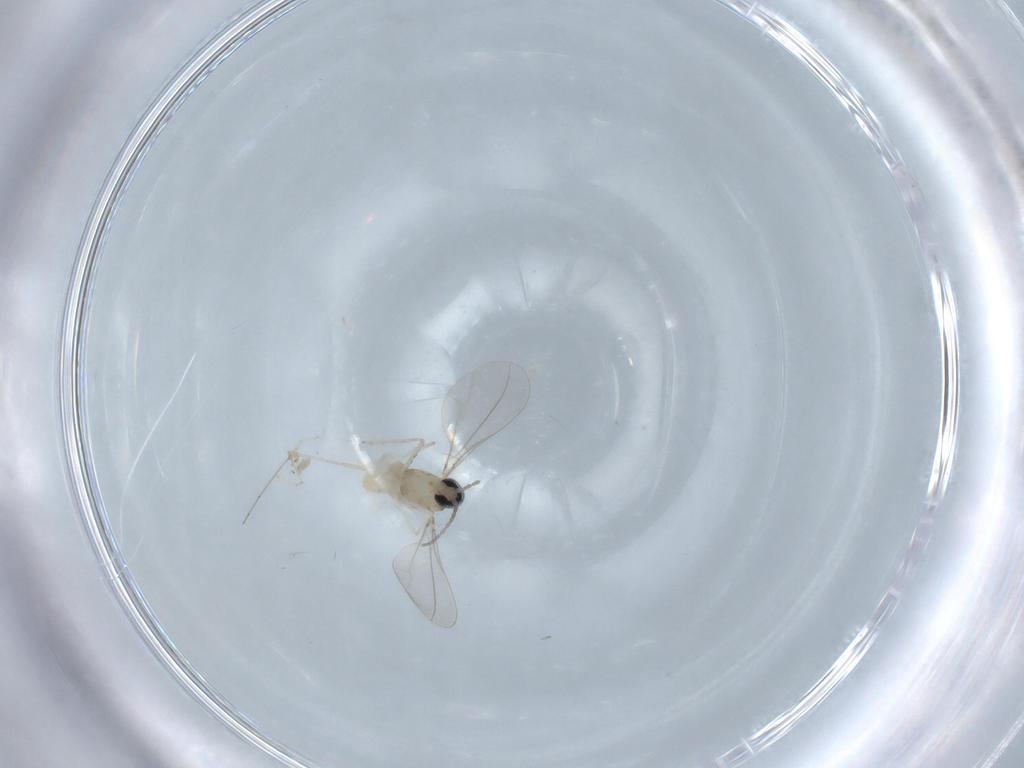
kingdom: Animalia
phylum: Arthropoda
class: Insecta
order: Diptera
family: Cecidomyiidae
